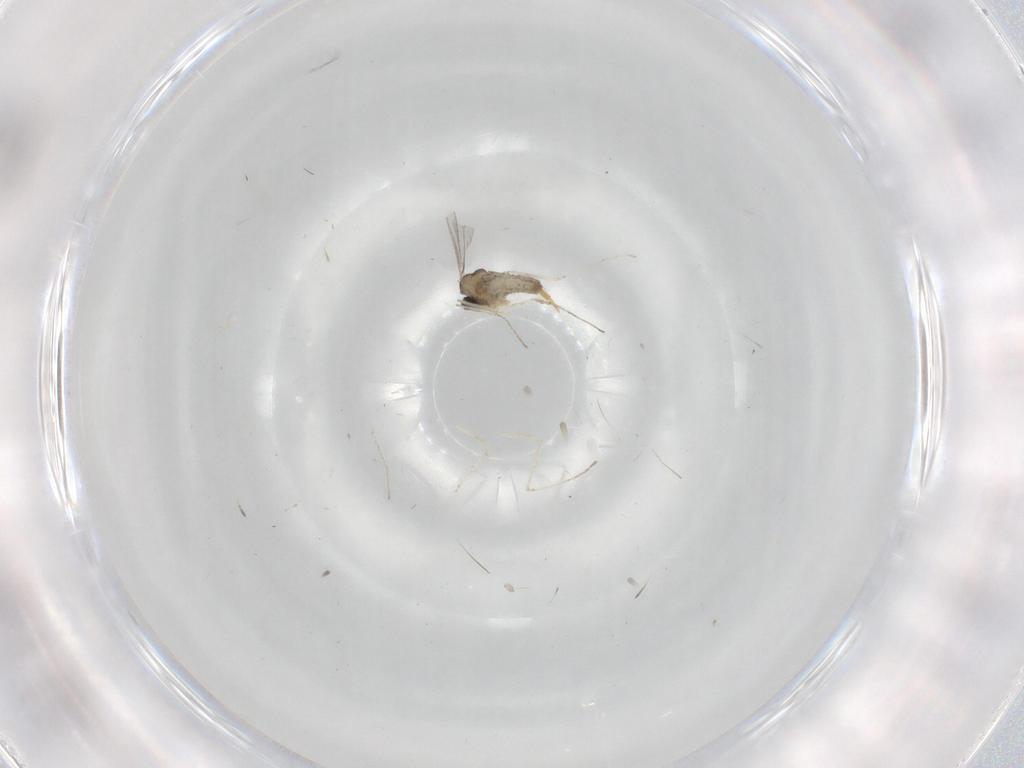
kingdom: Animalia
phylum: Arthropoda
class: Insecta
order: Diptera
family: Cecidomyiidae
